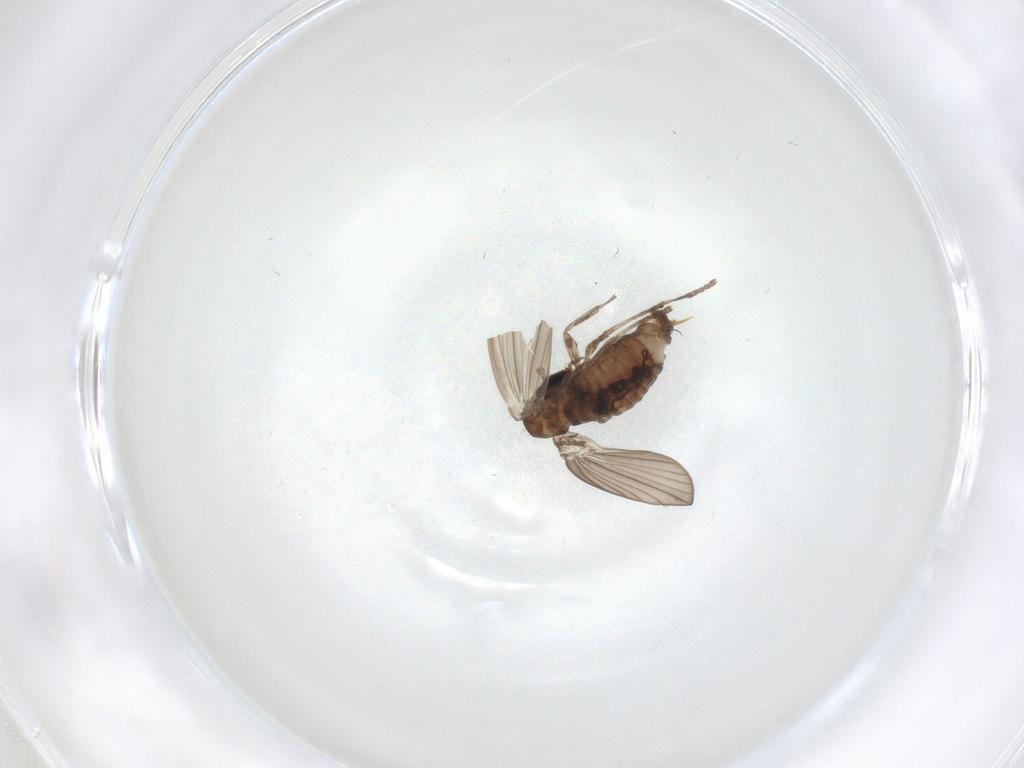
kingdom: Animalia
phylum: Arthropoda
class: Insecta
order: Diptera
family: Psychodidae
